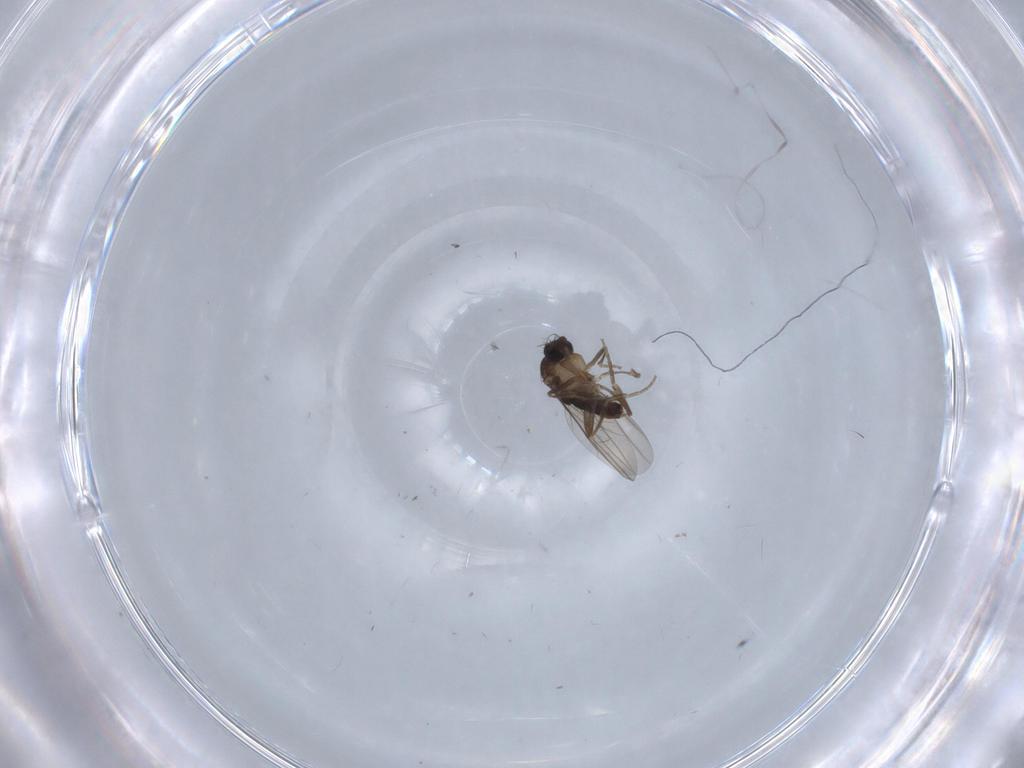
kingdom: Animalia
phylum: Arthropoda
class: Insecta
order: Diptera
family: Phoridae
